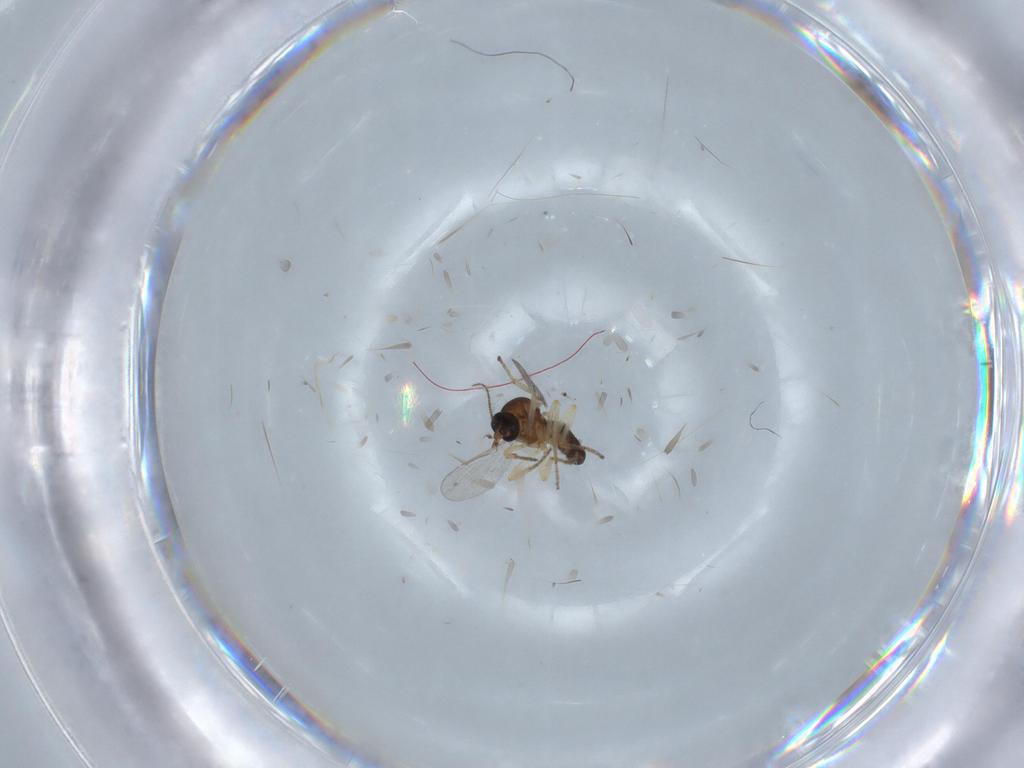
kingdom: Animalia
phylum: Arthropoda
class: Insecta
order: Diptera
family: Ceratopogonidae
